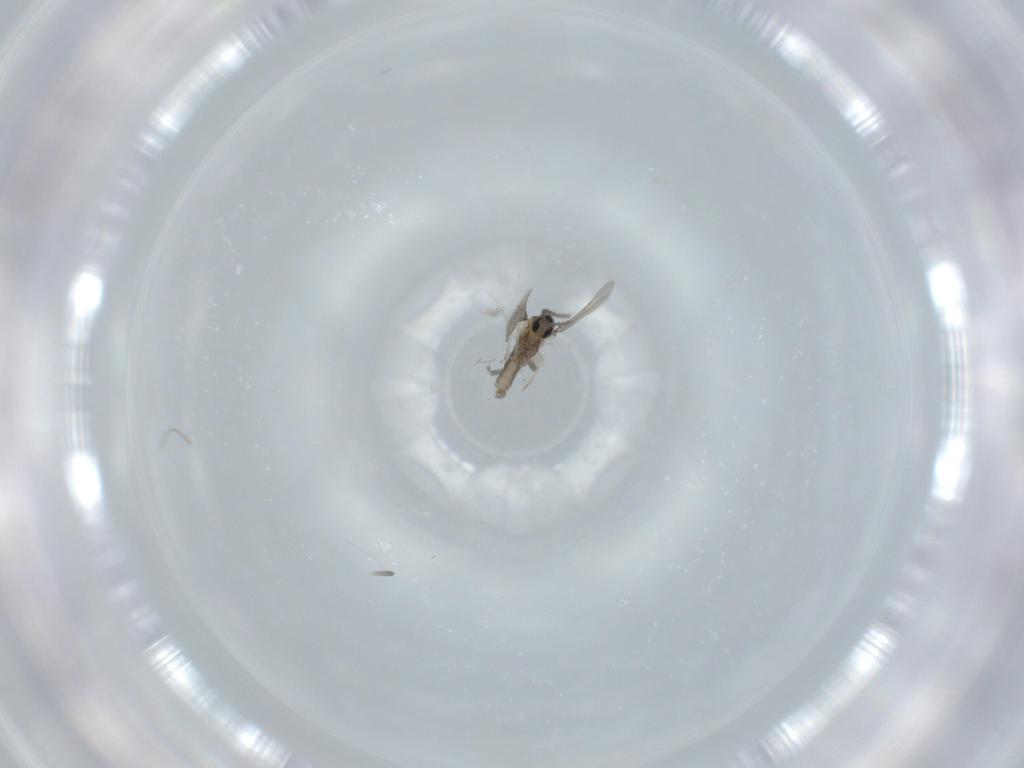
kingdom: Animalia
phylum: Arthropoda
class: Insecta
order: Diptera
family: Cecidomyiidae
